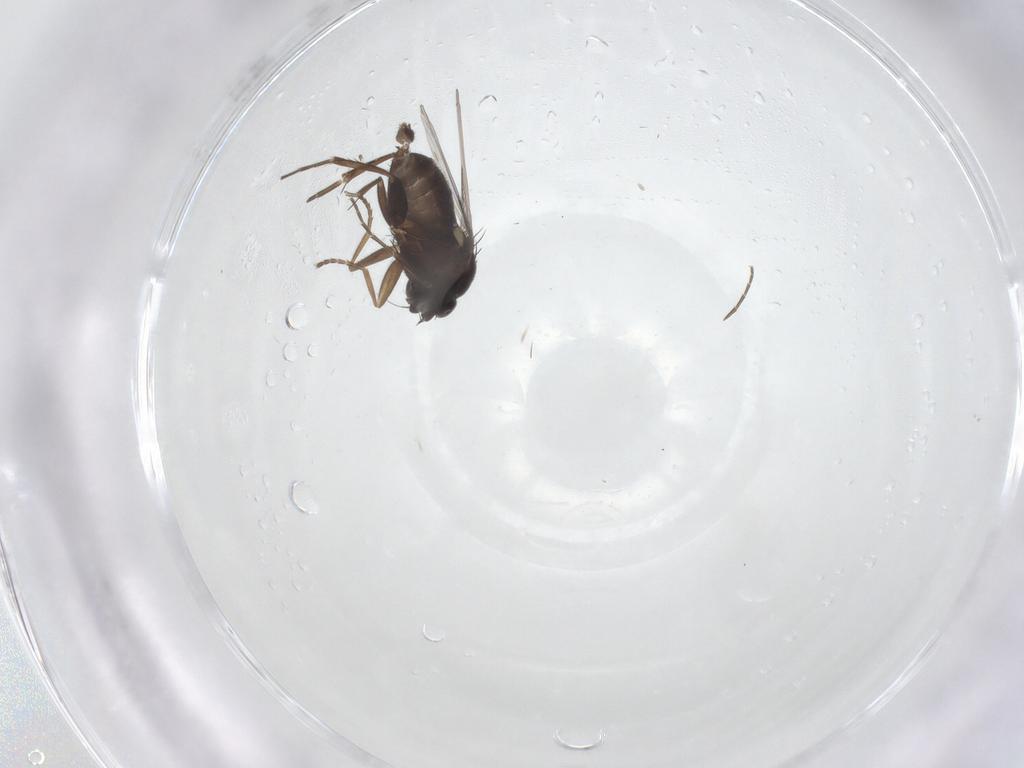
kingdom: Animalia
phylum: Arthropoda
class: Insecta
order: Diptera
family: Phoridae
